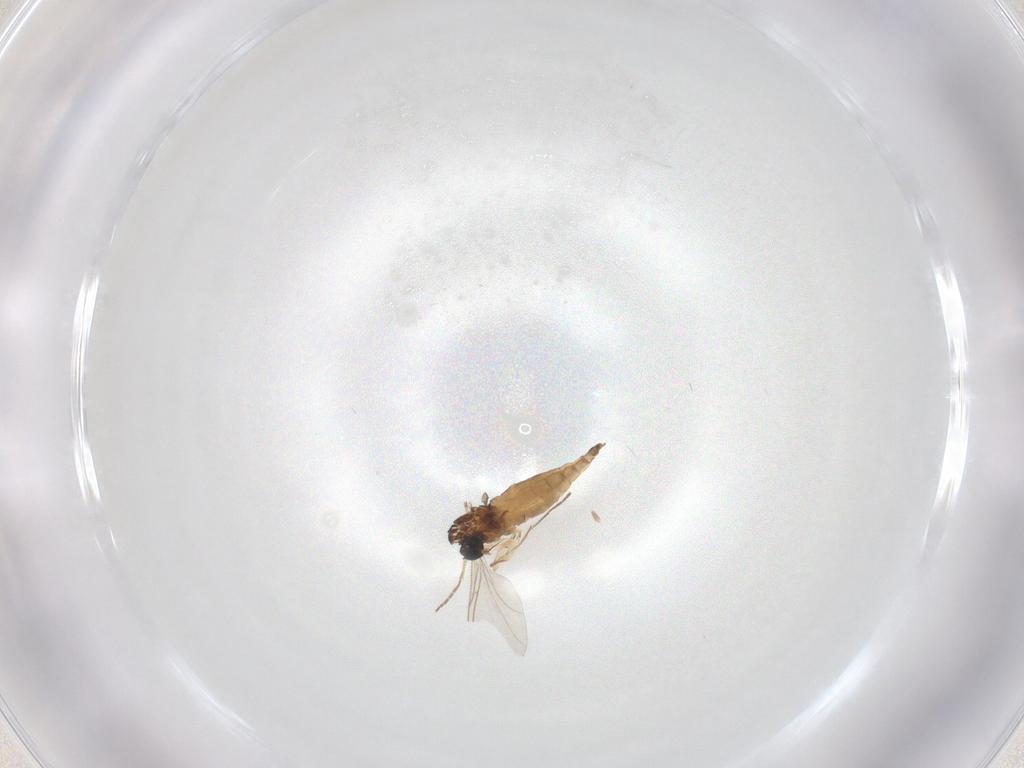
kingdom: Animalia
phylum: Arthropoda
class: Insecta
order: Diptera
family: Sciaridae
